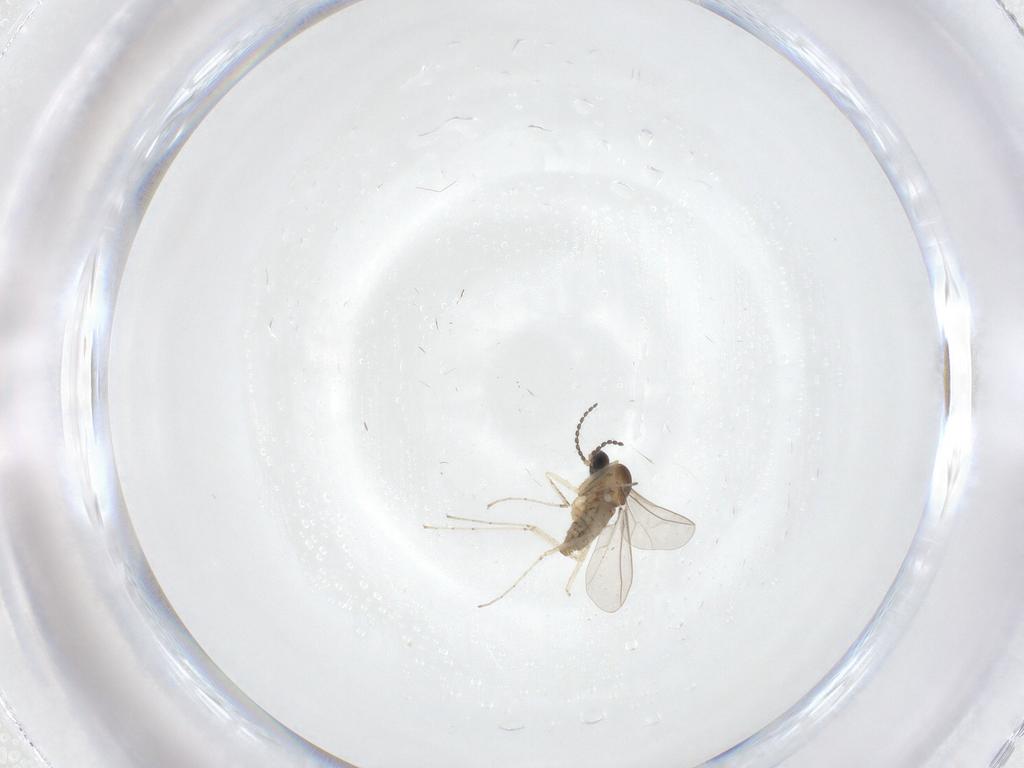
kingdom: Animalia
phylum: Arthropoda
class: Insecta
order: Diptera
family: Cecidomyiidae
